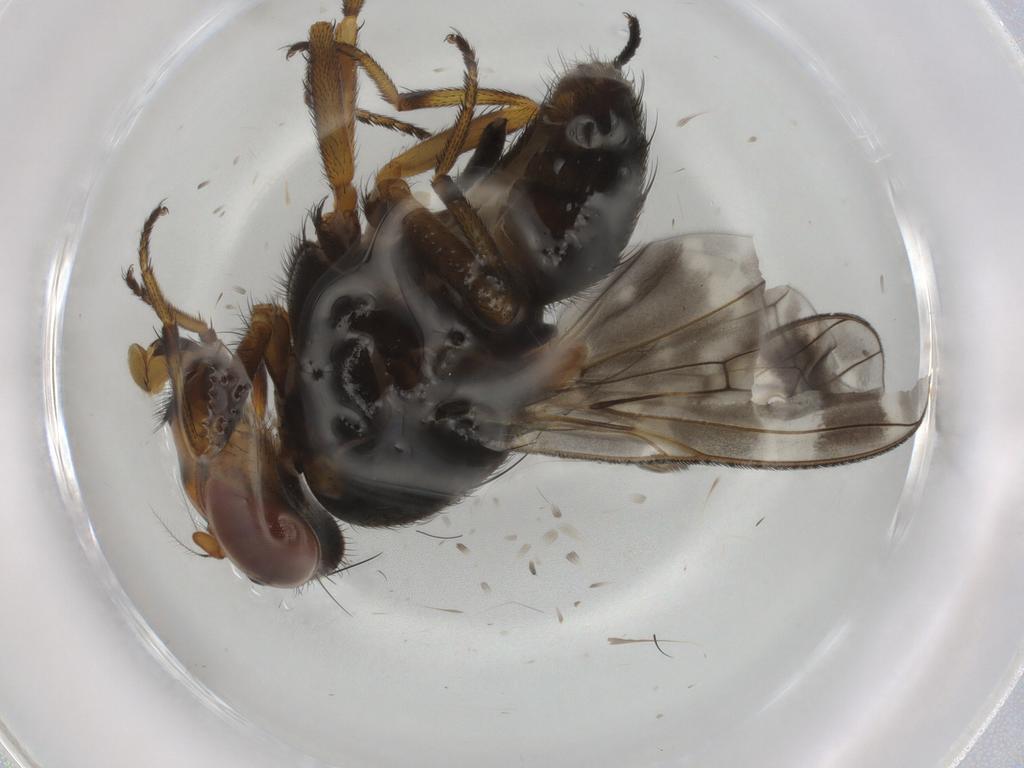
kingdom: Animalia
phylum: Arthropoda
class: Insecta
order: Diptera
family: Anthomyiidae
